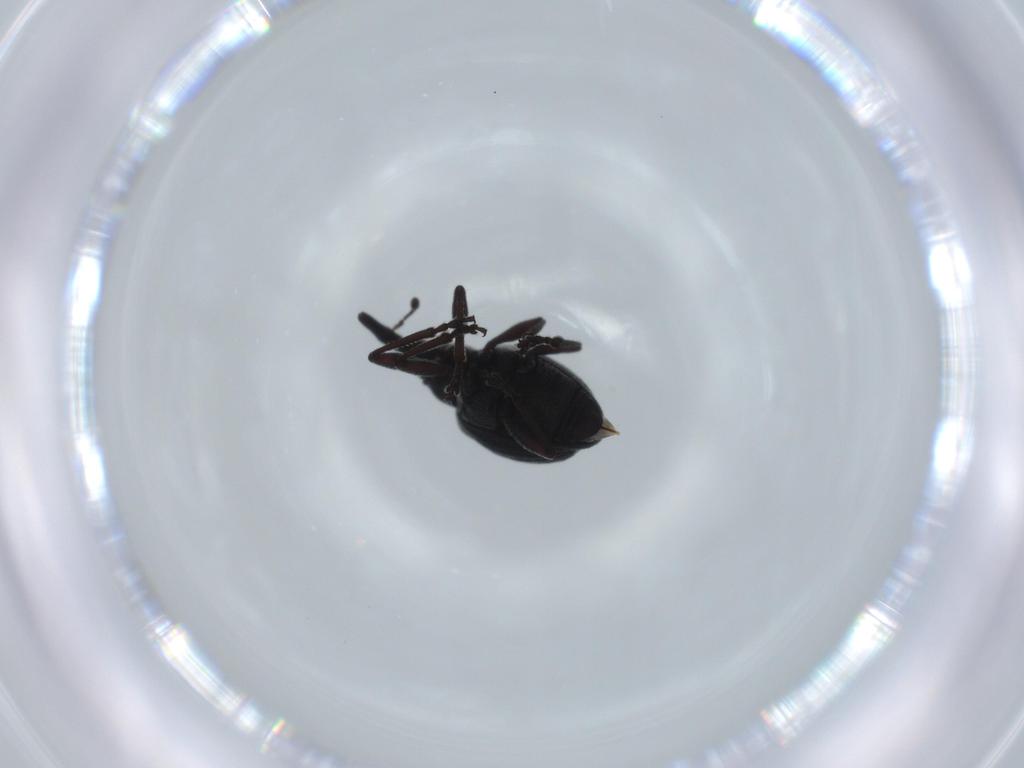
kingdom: Animalia
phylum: Arthropoda
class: Insecta
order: Coleoptera
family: Brentidae
